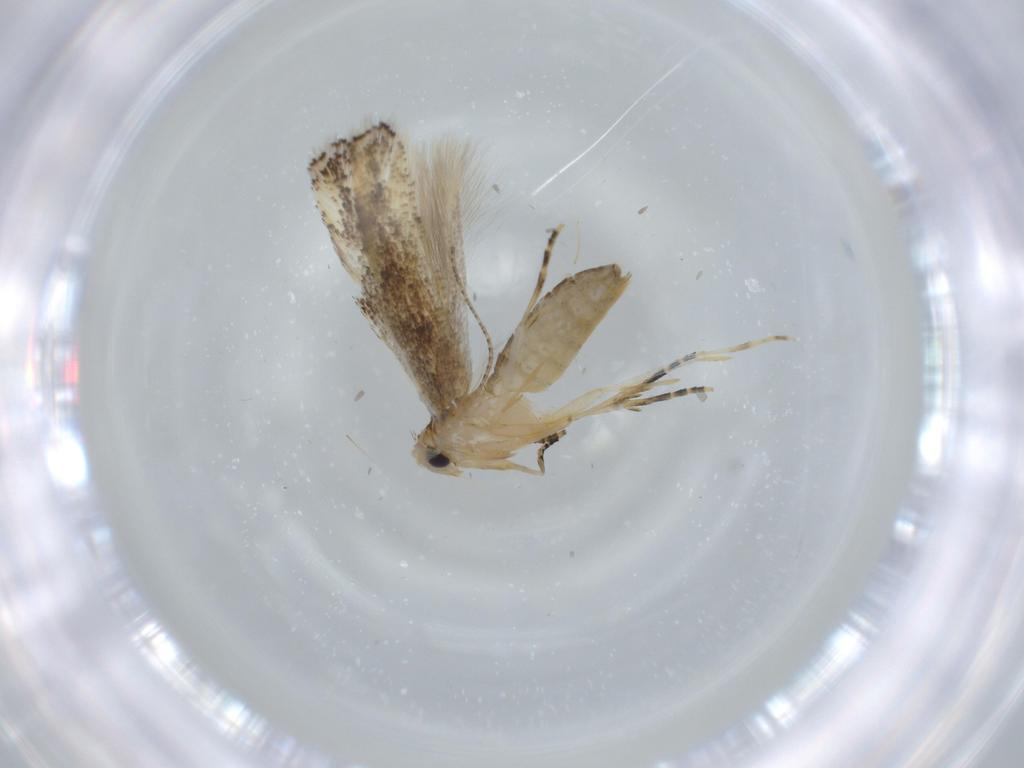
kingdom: Animalia
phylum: Arthropoda
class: Insecta
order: Lepidoptera
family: Bucculatricidae
